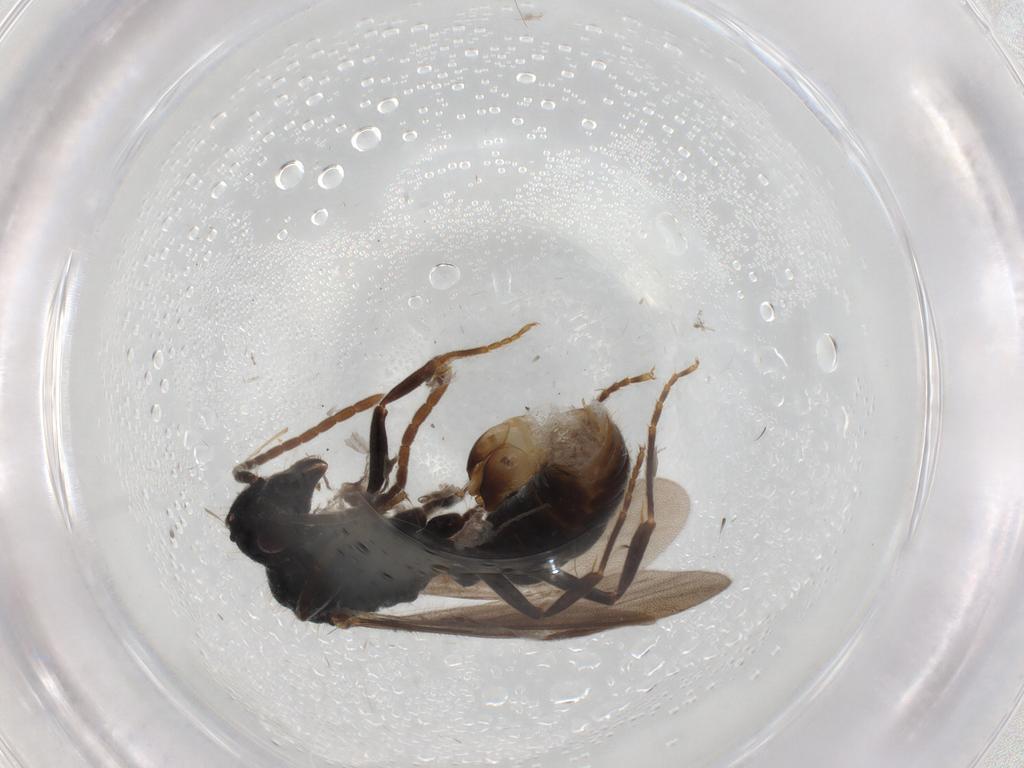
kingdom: Animalia
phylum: Arthropoda
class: Insecta
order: Hymenoptera
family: Formicidae
